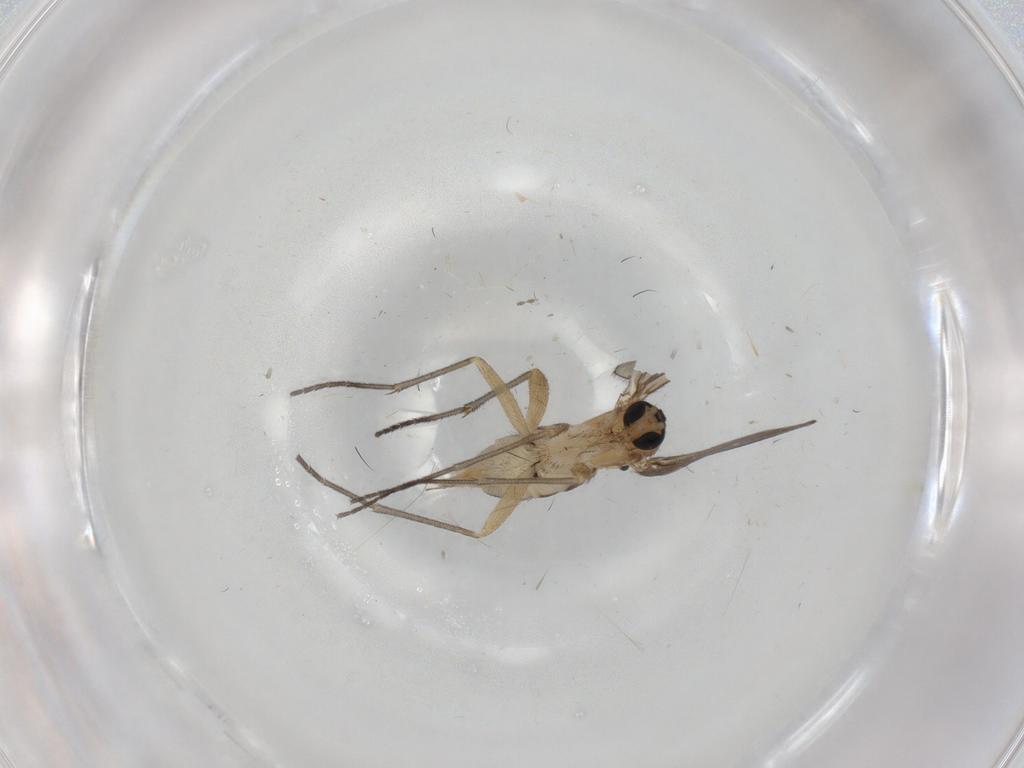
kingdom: Animalia
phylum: Arthropoda
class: Insecta
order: Diptera
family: Sciaridae
